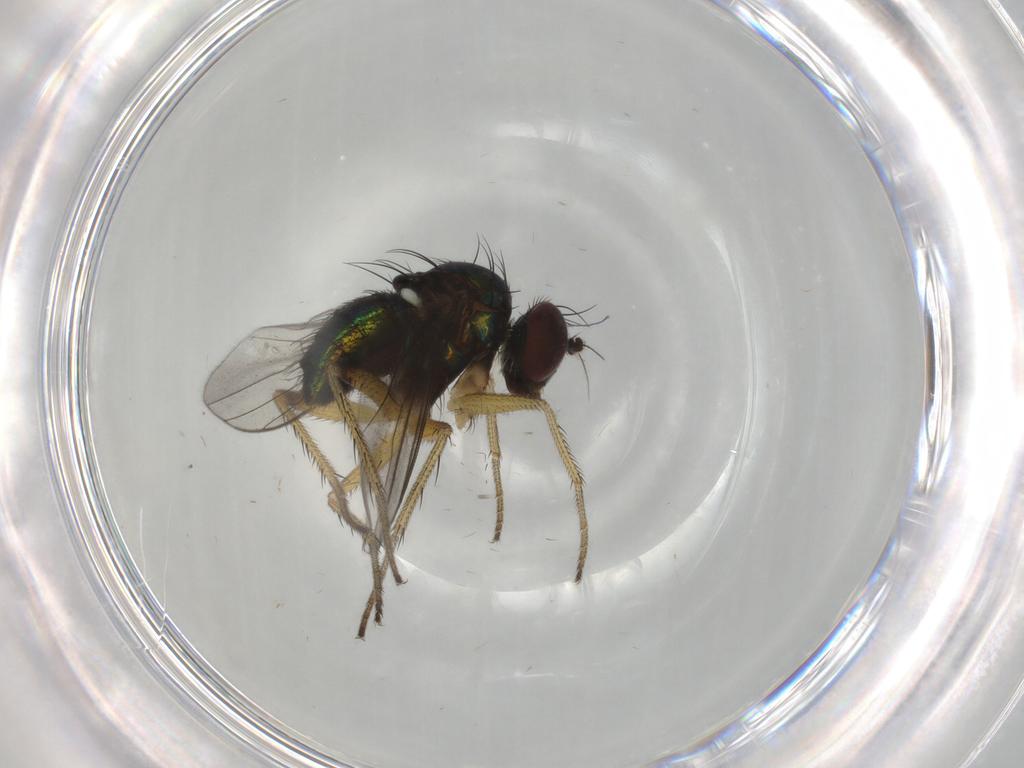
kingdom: Animalia
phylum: Arthropoda
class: Insecta
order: Diptera
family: Dolichopodidae
